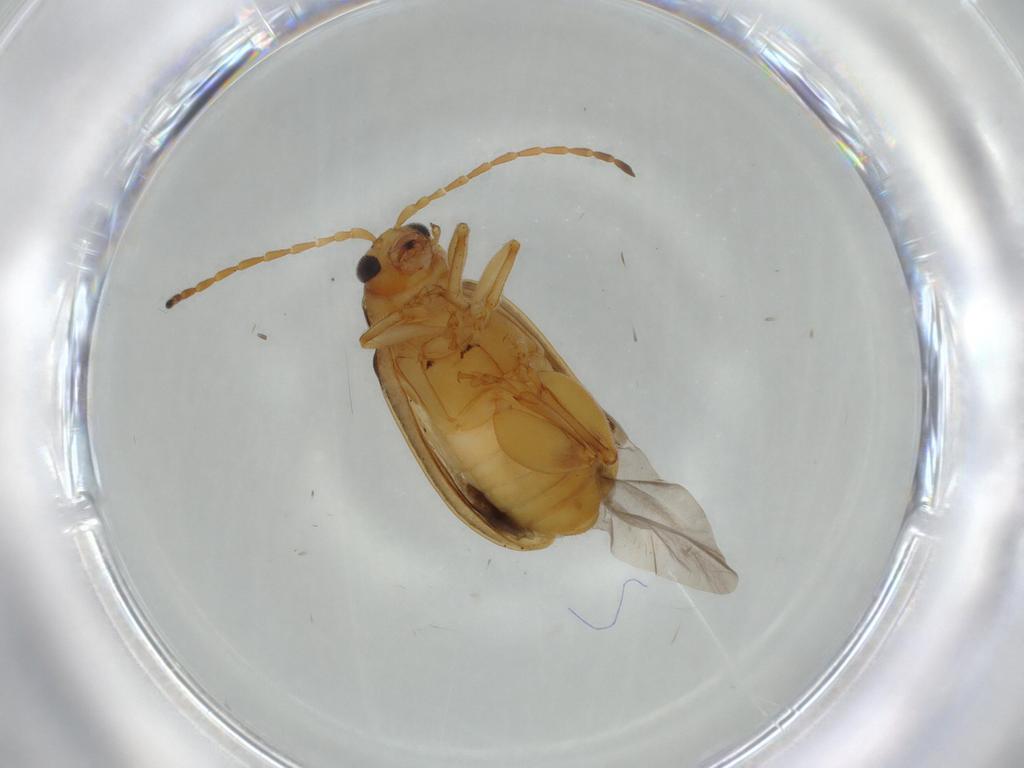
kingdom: Animalia
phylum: Arthropoda
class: Insecta
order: Coleoptera
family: Chrysomelidae
